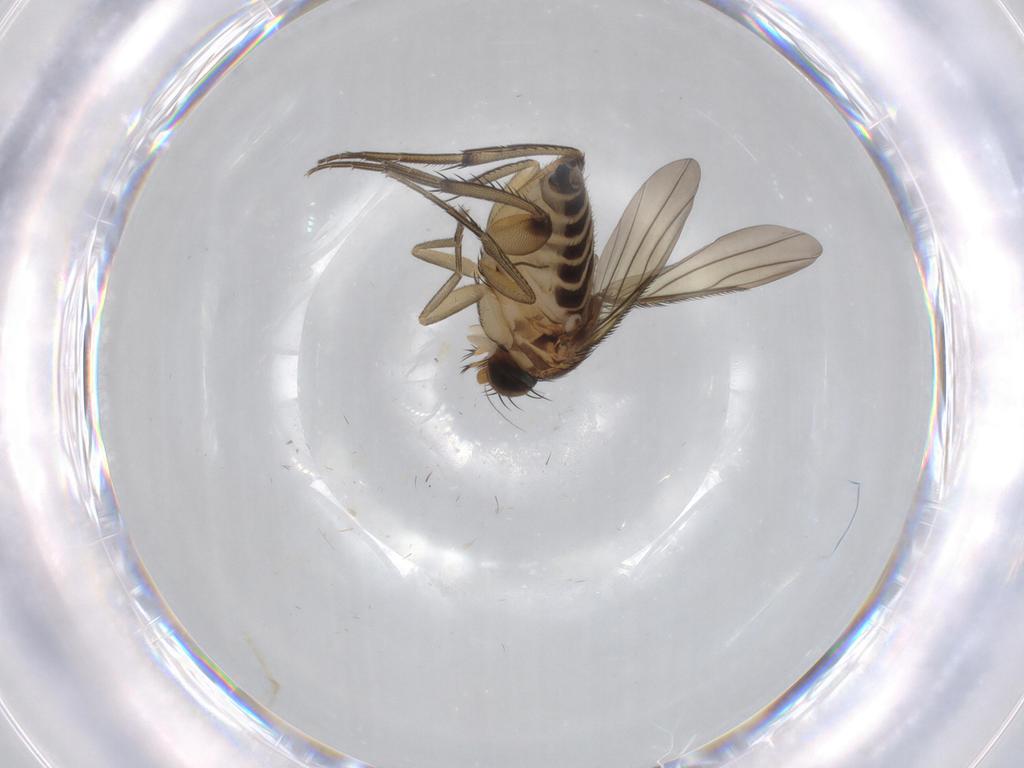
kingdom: Animalia
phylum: Arthropoda
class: Insecta
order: Diptera
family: Phoridae
